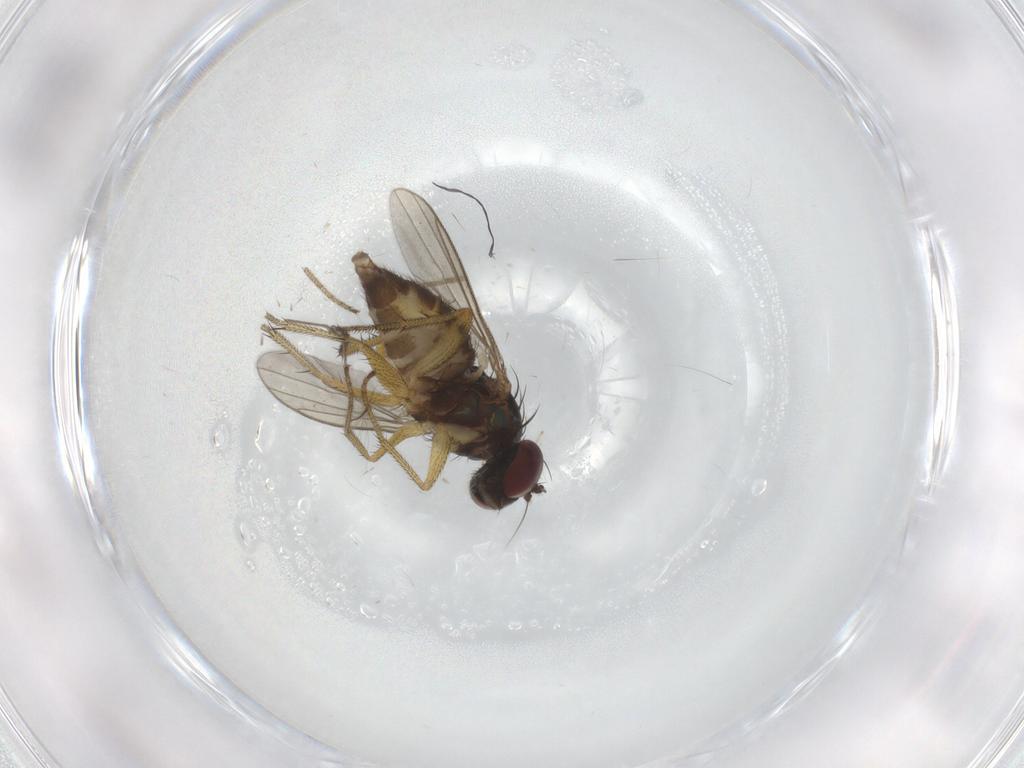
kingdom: Animalia
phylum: Arthropoda
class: Insecta
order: Diptera
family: Dolichopodidae
